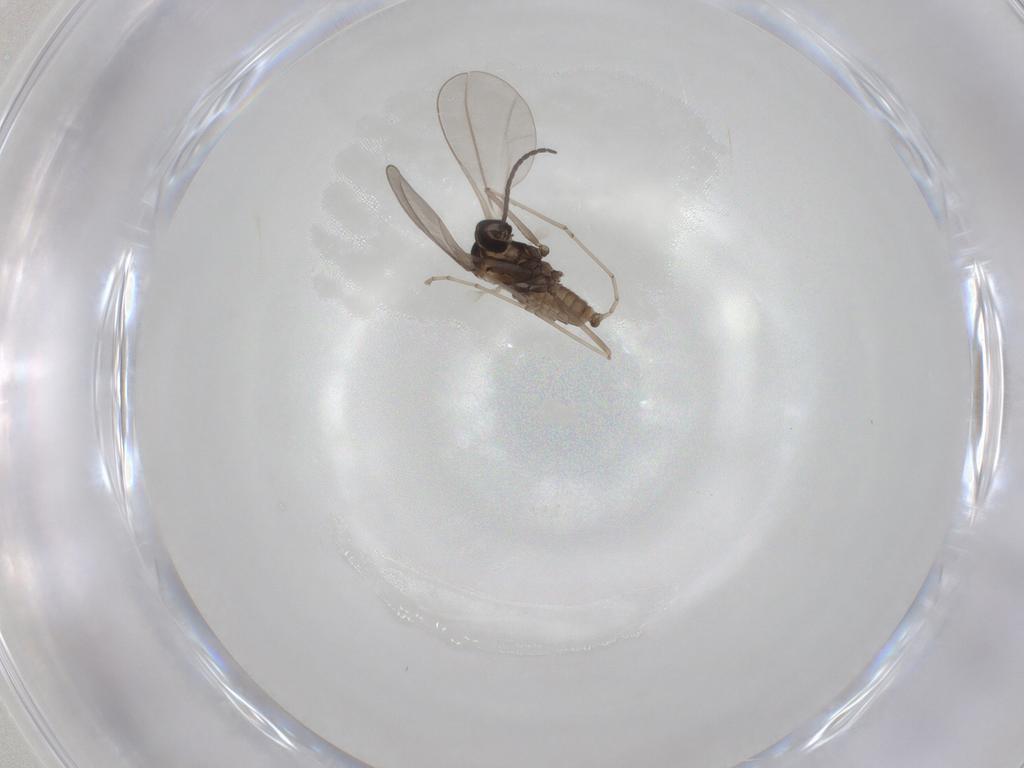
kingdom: Animalia
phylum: Arthropoda
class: Insecta
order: Diptera
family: Cecidomyiidae
